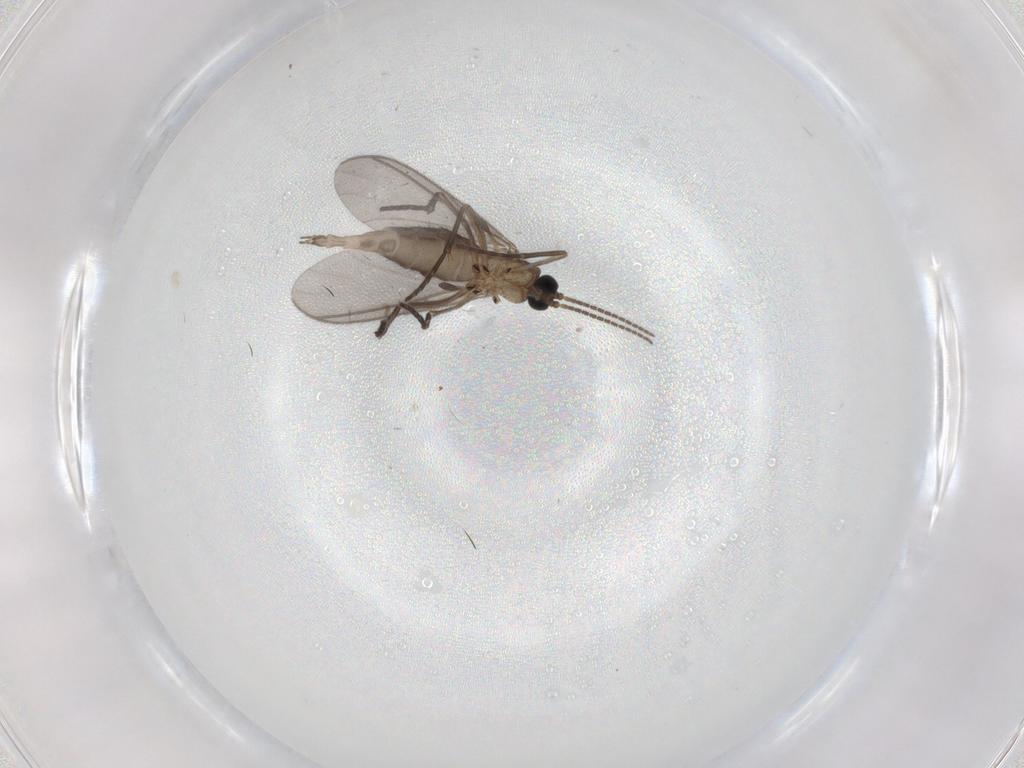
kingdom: Animalia
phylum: Arthropoda
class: Insecta
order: Diptera
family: Sciaridae
